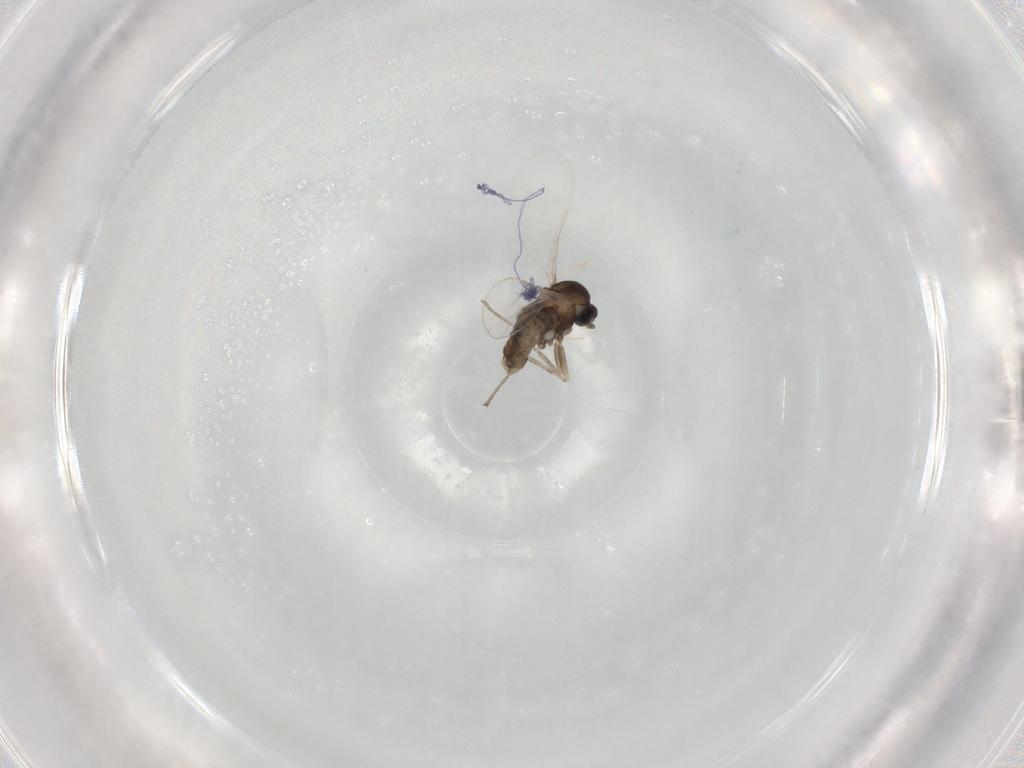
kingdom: Animalia
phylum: Arthropoda
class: Insecta
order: Diptera
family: Cecidomyiidae
